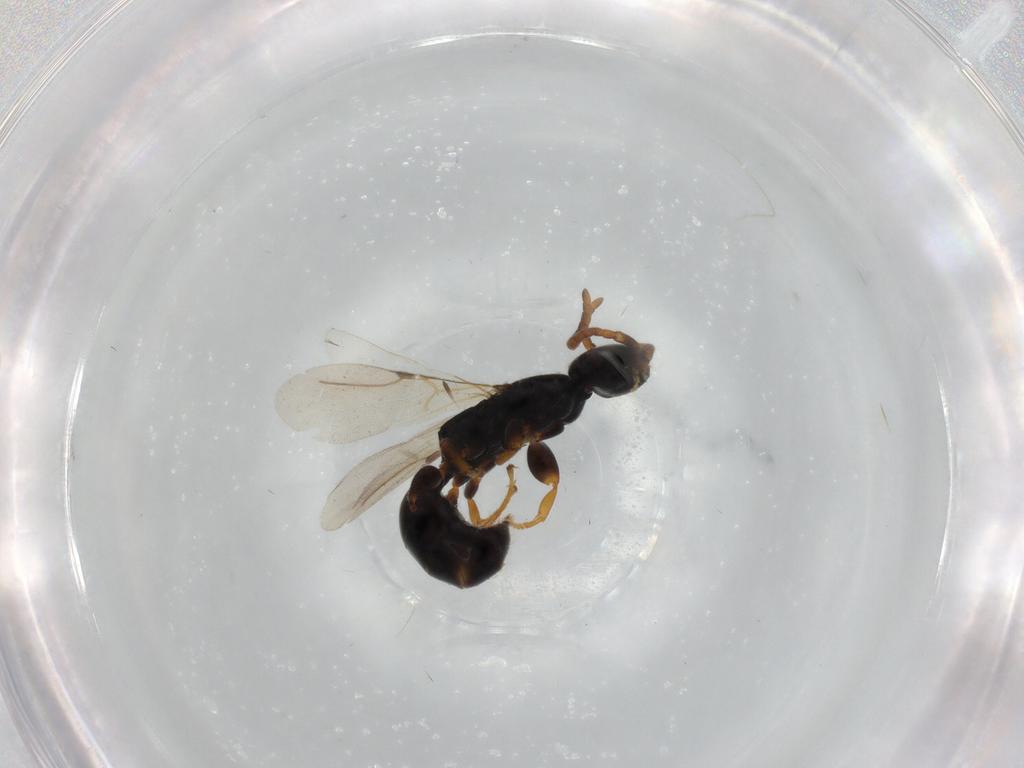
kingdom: Animalia
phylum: Arthropoda
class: Insecta
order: Hymenoptera
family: Bethylidae
